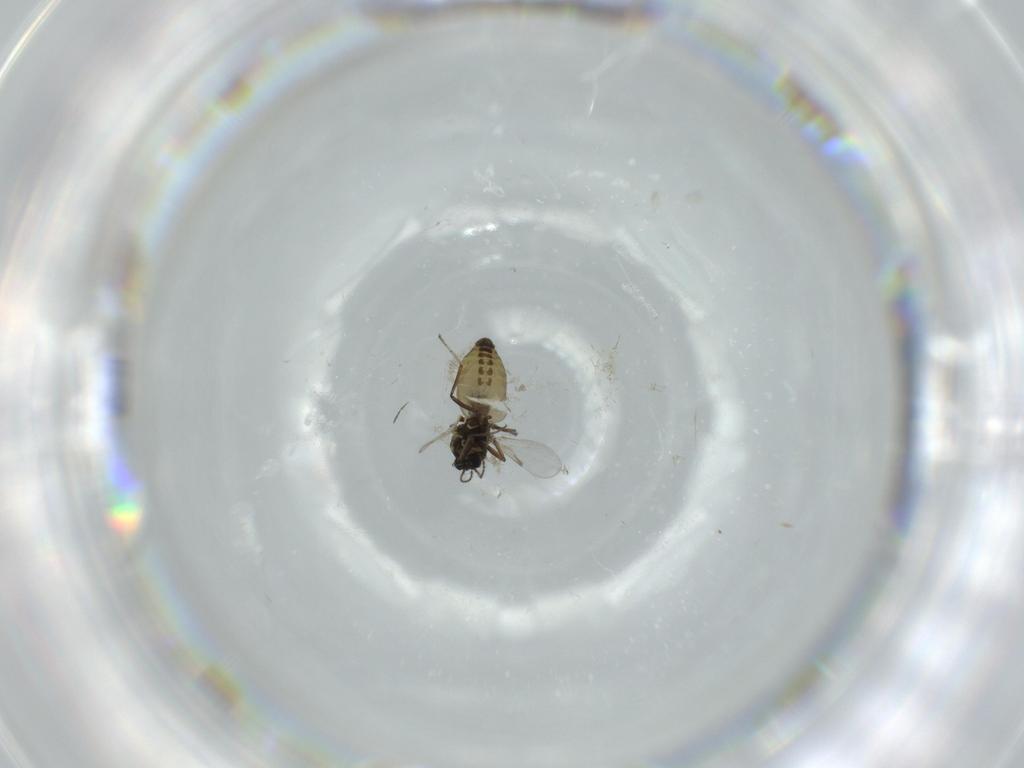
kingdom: Animalia
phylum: Arthropoda
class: Insecta
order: Diptera
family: Ceratopogonidae
